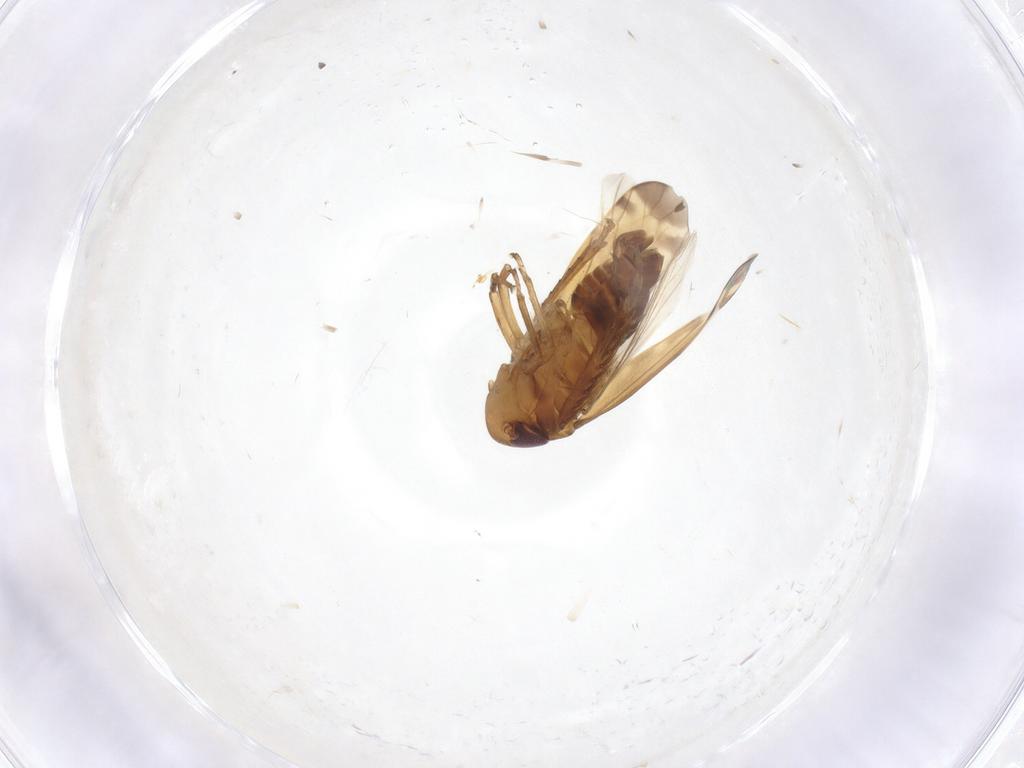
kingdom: Animalia
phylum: Arthropoda
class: Insecta
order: Hemiptera
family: Cicadellidae
